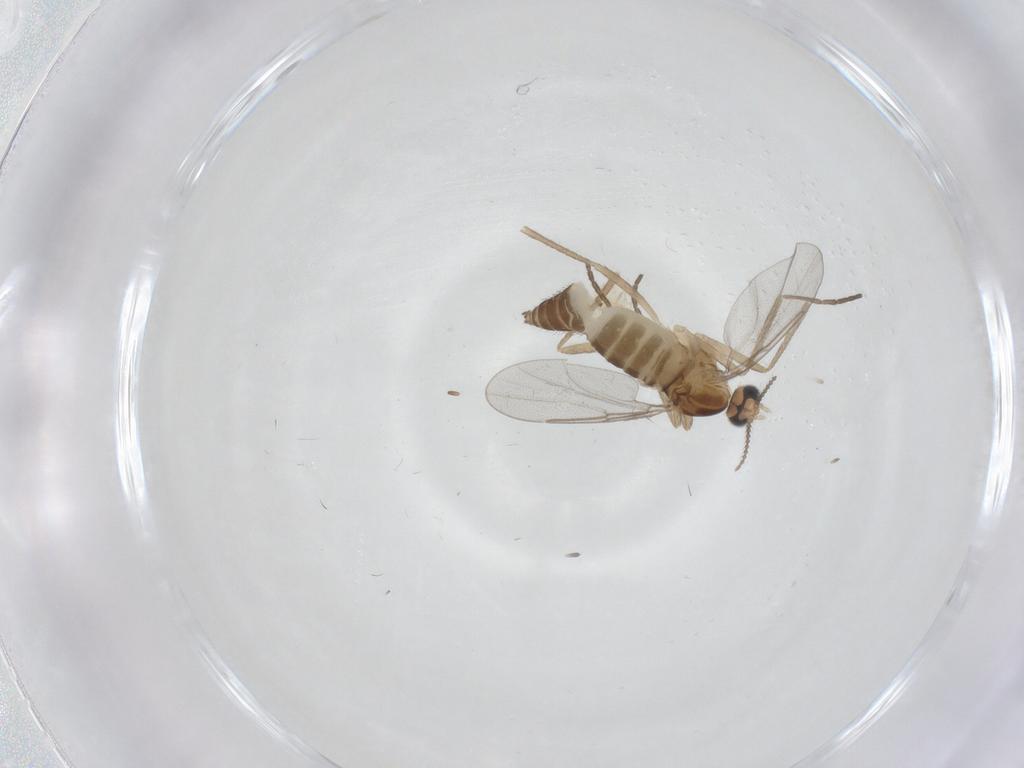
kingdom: Animalia
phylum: Arthropoda
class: Insecta
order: Diptera
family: Cecidomyiidae
